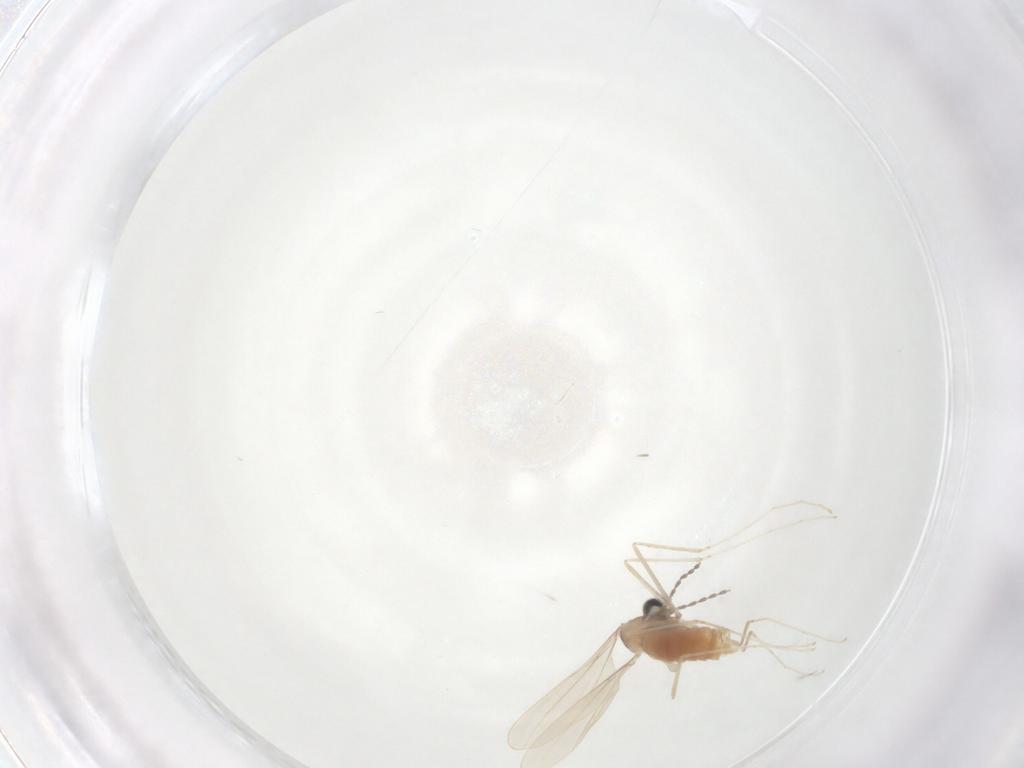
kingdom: Animalia
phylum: Arthropoda
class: Insecta
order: Diptera
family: Cecidomyiidae
